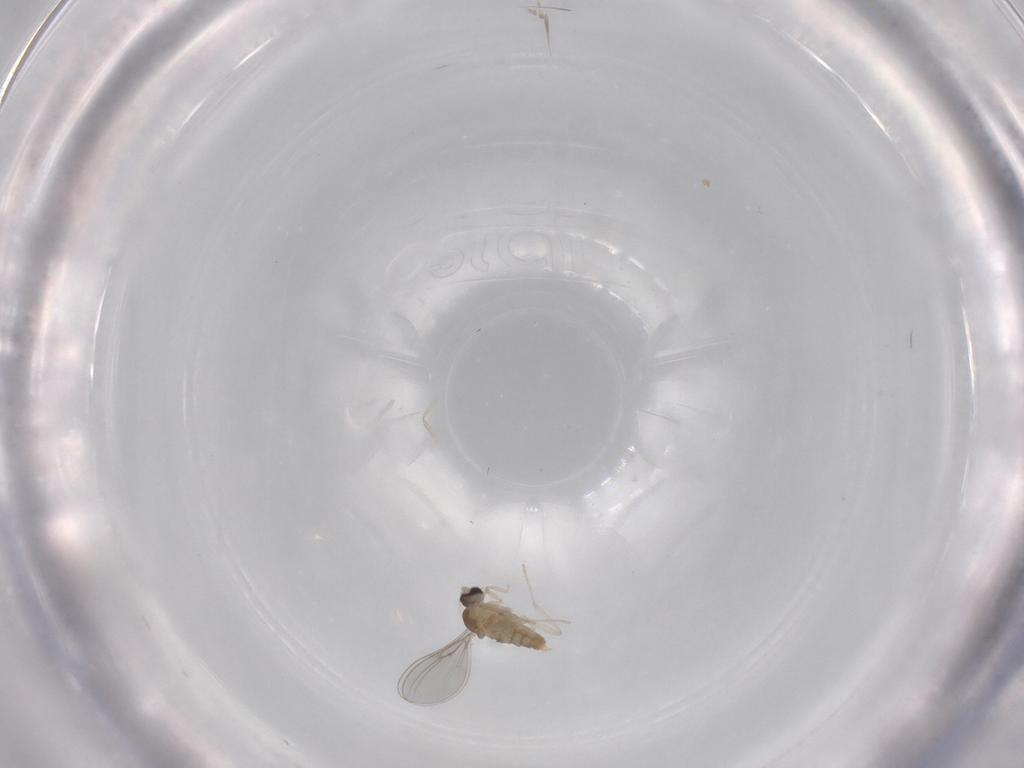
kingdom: Animalia
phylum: Arthropoda
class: Insecta
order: Diptera
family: Cecidomyiidae
